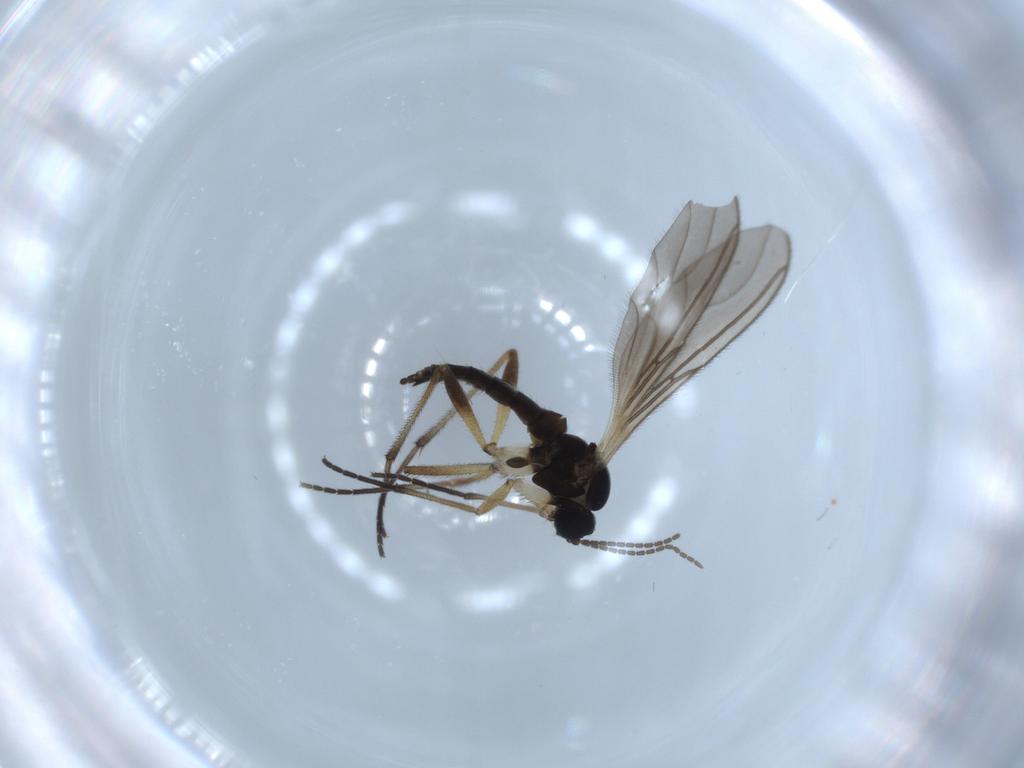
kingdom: Animalia
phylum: Arthropoda
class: Insecta
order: Diptera
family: Sciaridae
